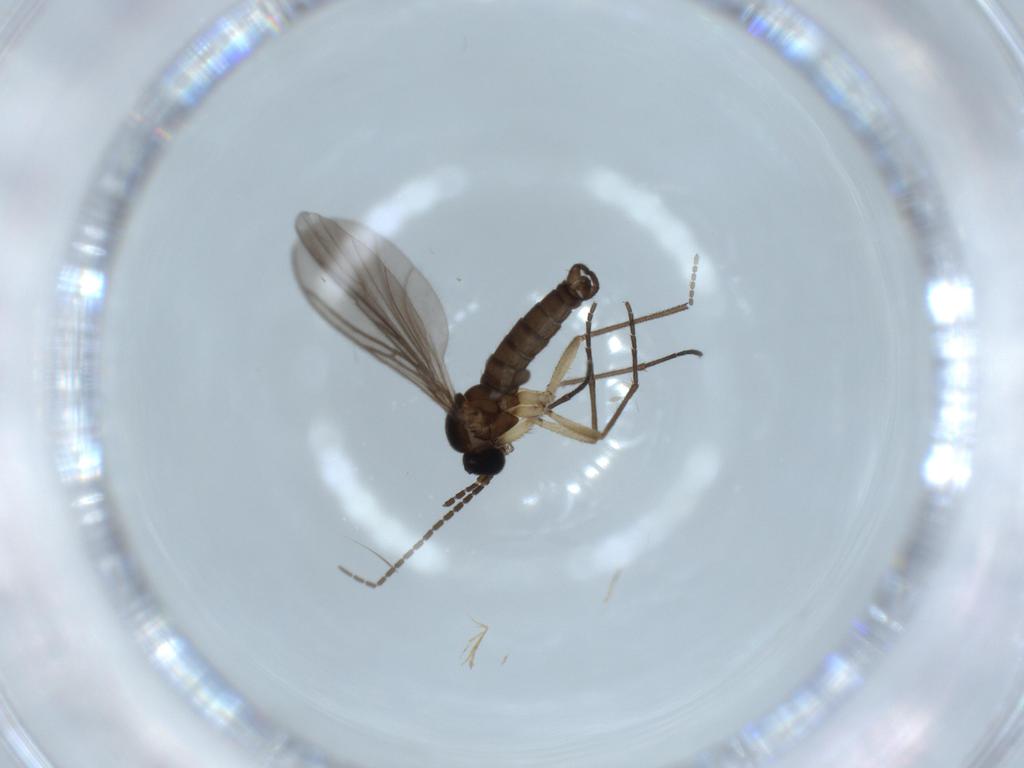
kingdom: Animalia
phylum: Arthropoda
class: Insecta
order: Diptera
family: Sciaridae
